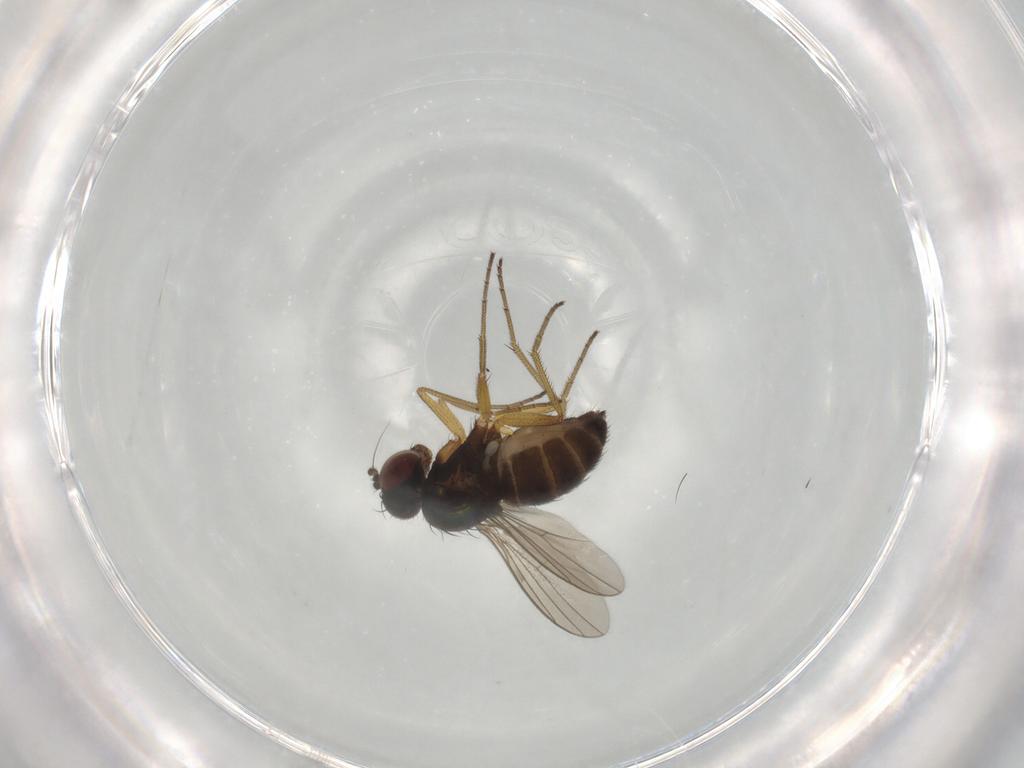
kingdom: Animalia
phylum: Arthropoda
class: Insecta
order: Diptera
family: Dolichopodidae
